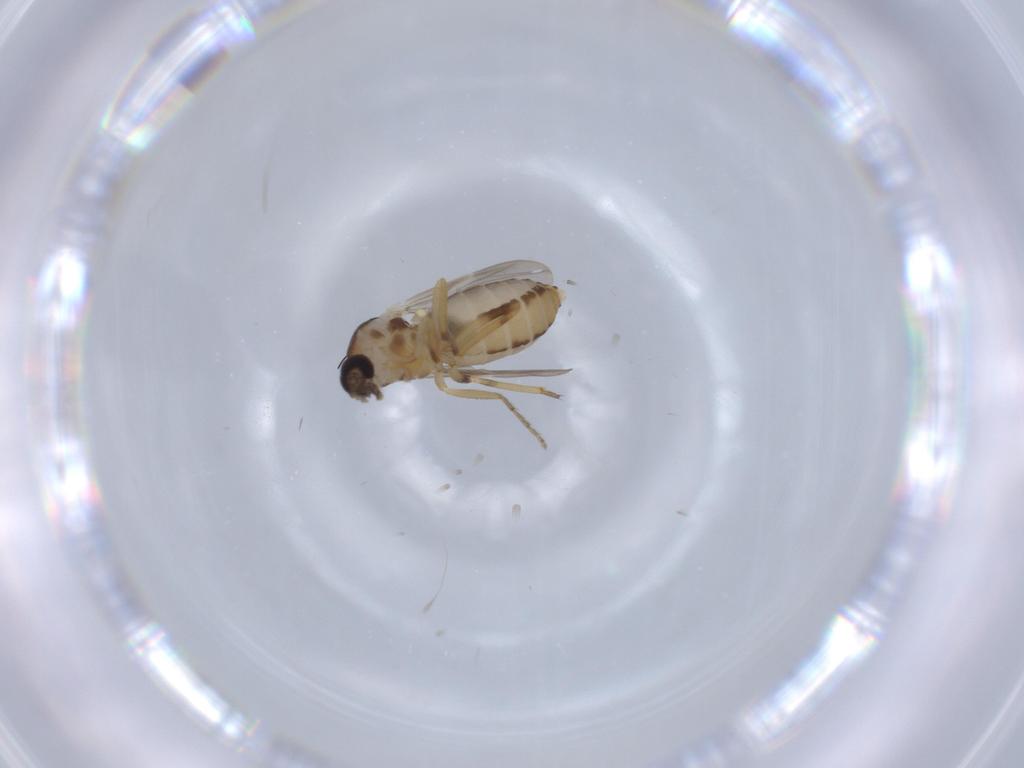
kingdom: Animalia
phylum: Arthropoda
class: Insecta
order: Diptera
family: Ceratopogonidae
